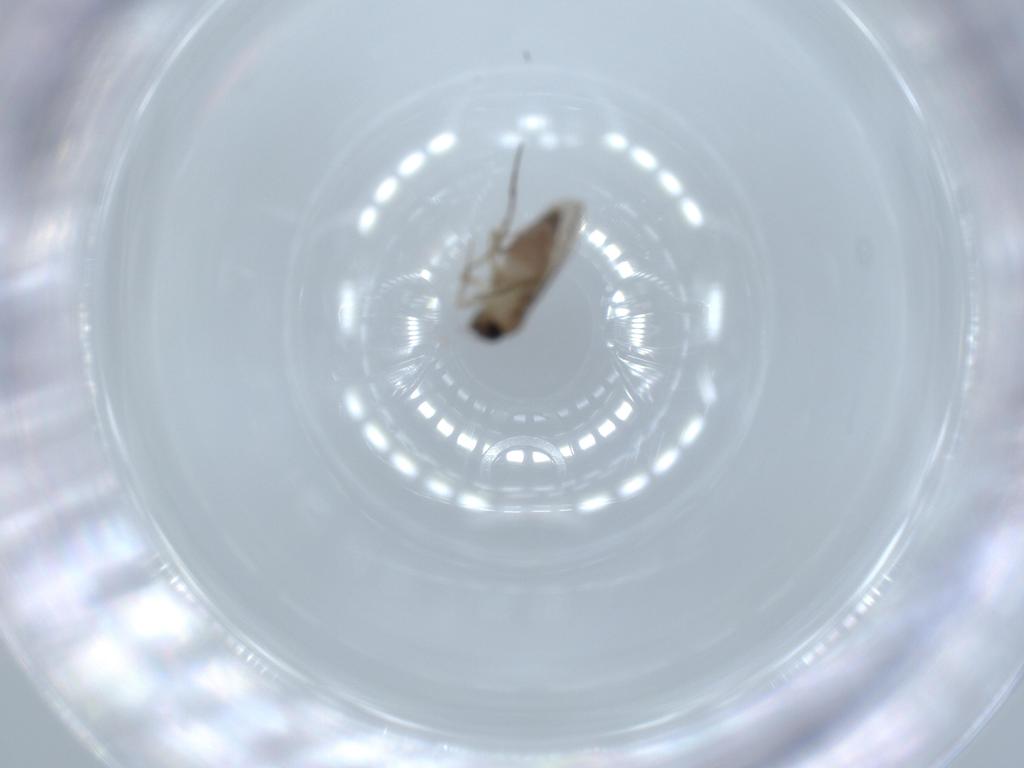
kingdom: Animalia
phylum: Arthropoda
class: Insecta
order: Diptera
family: Phoridae
